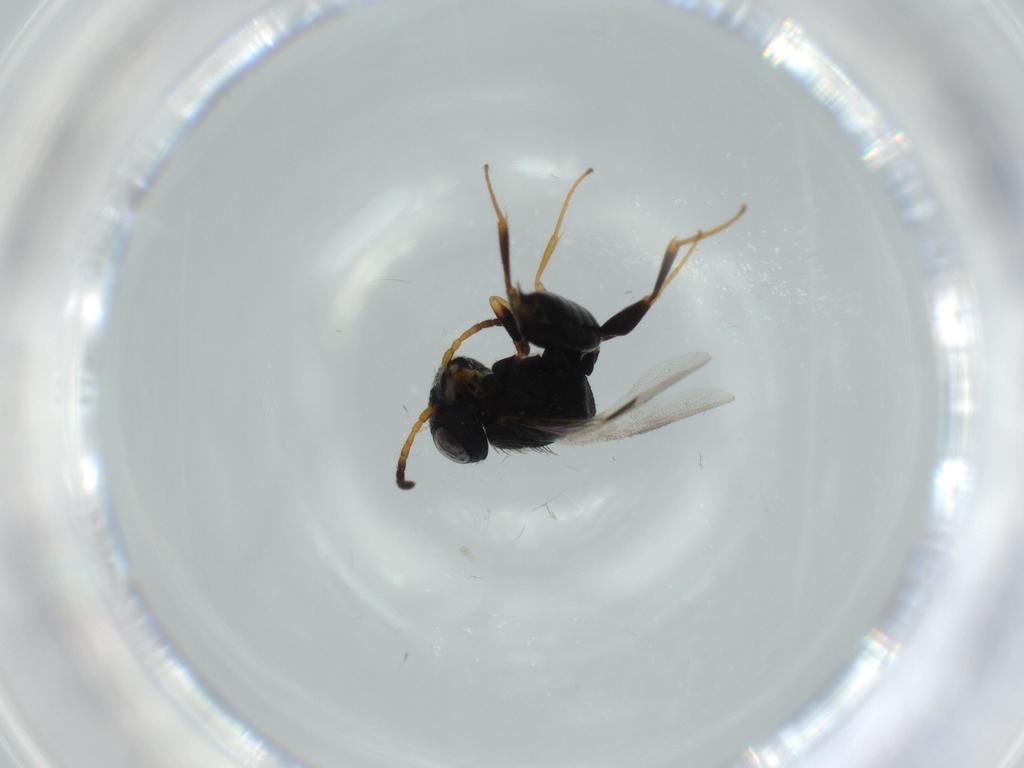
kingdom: Animalia
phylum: Arthropoda
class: Insecta
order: Hymenoptera
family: Dryinidae
